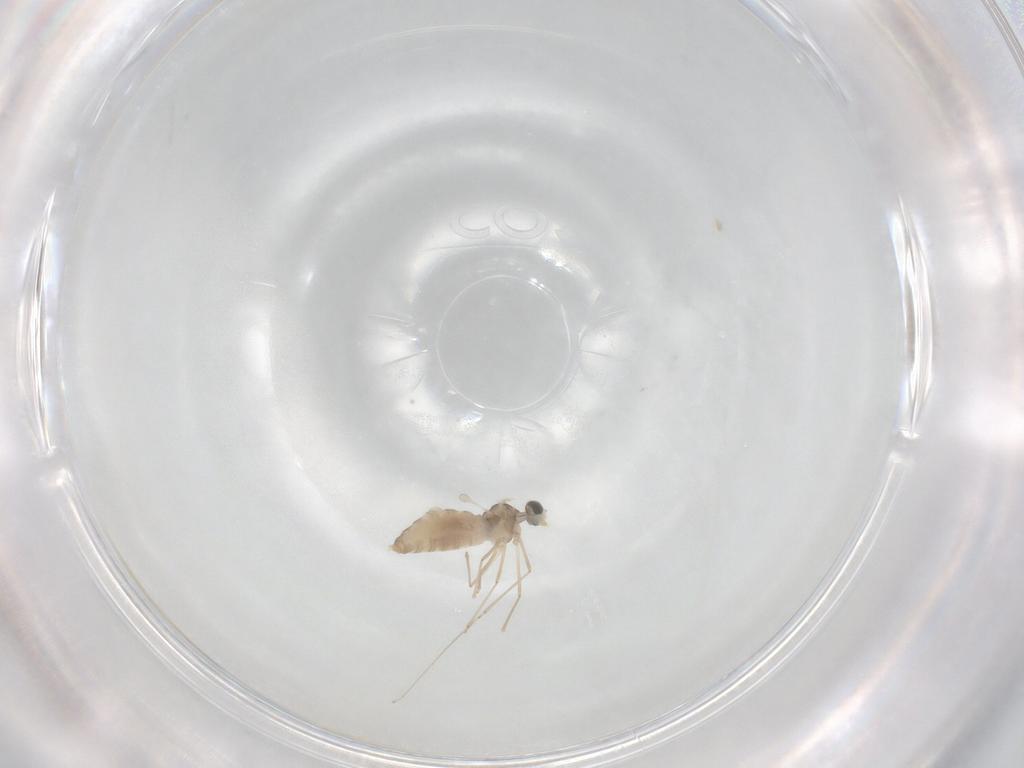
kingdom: Animalia
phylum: Arthropoda
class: Insecta
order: Diptera
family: Cecidomyiidae
